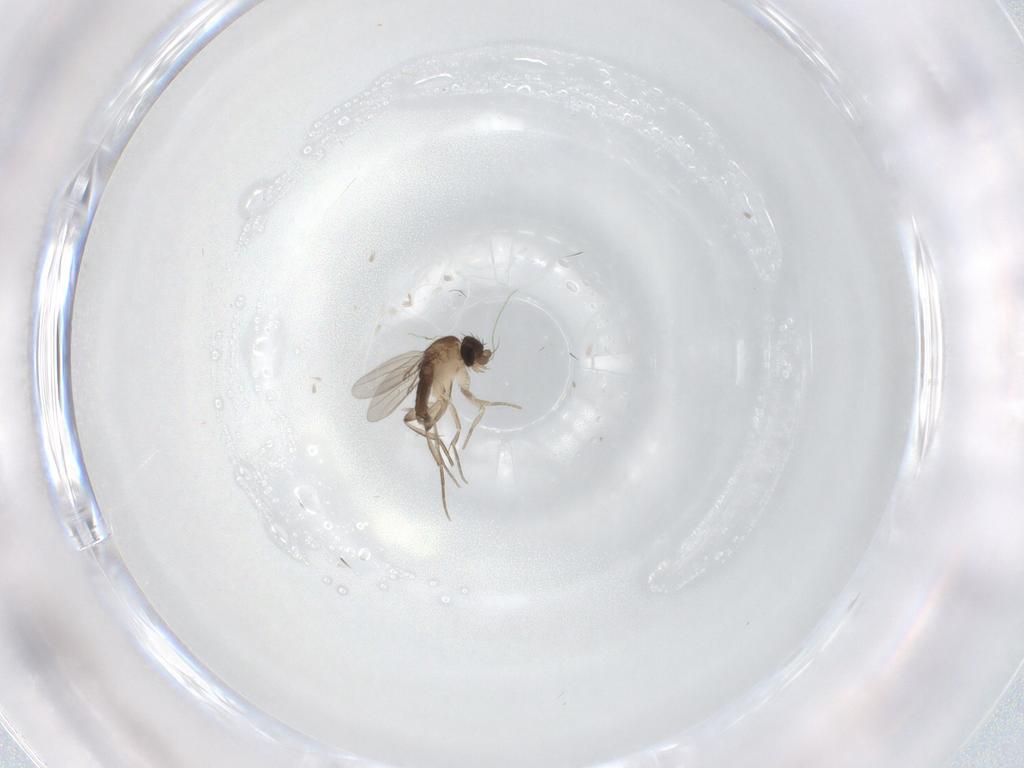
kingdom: Animalia
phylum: Arthropoda
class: Insecta
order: Diptera
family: Phoridae
